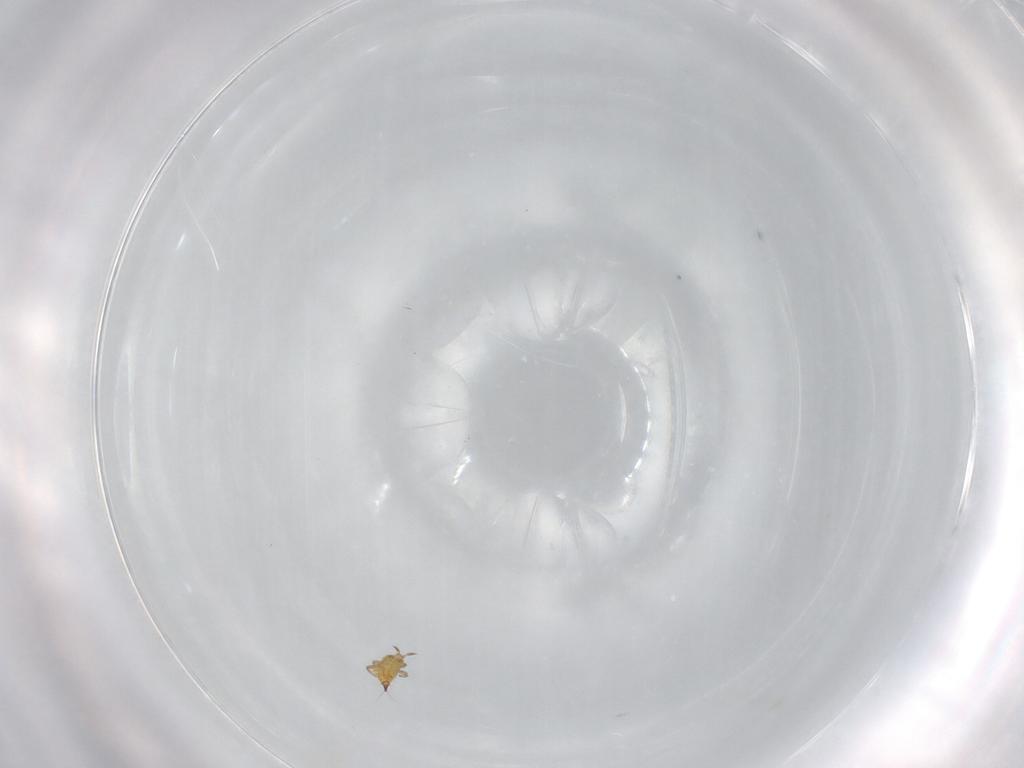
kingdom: Animalia
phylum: Arthropoda
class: Insecta
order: Thysanoptera
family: Phlaeothripidae
